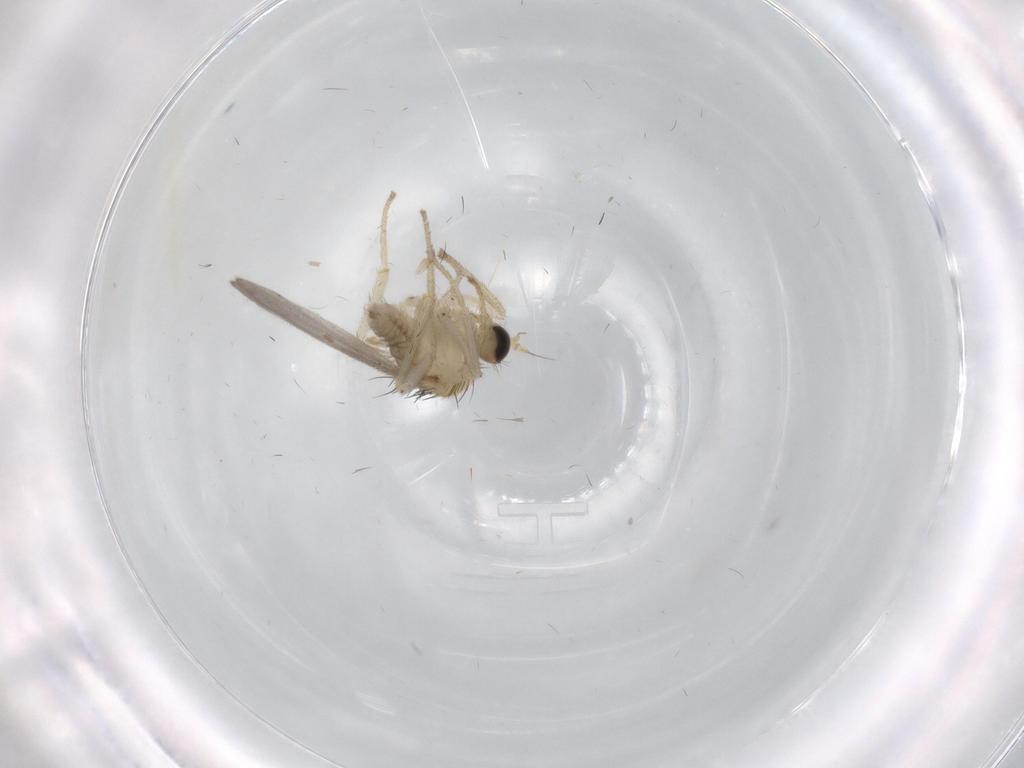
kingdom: Animalia
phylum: Arthropoda
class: Insecta
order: Diptera
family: Hybotidae
